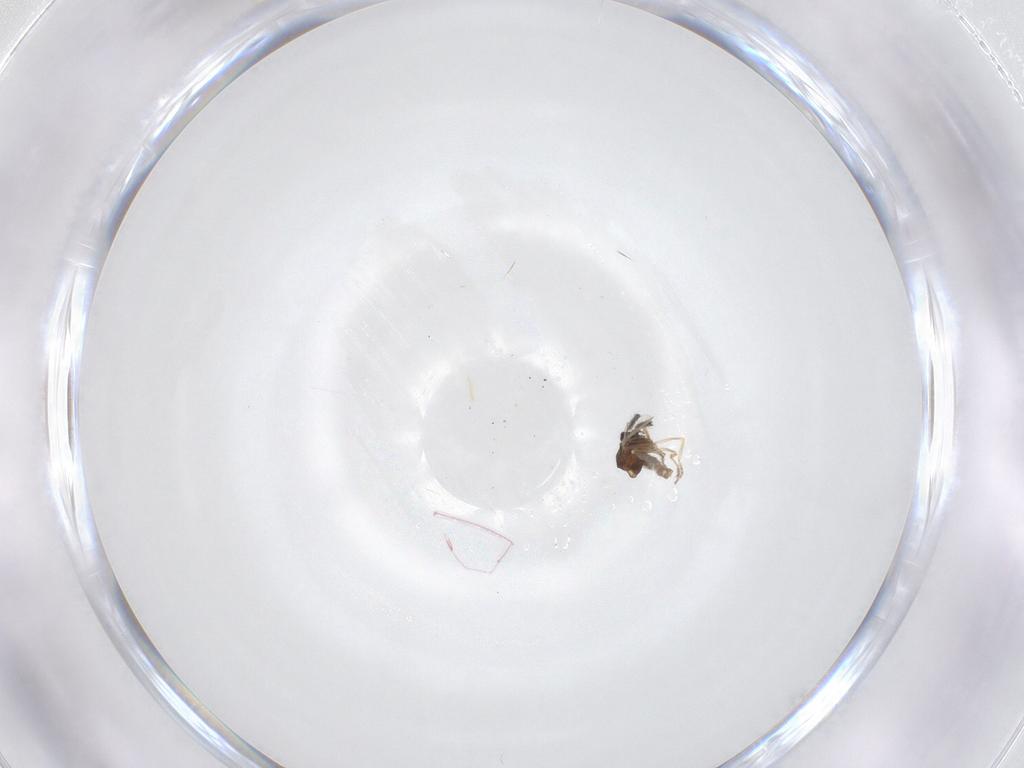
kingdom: Animalia
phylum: Arthropoda
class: Insecta
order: Diptera
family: Ceratopogonidae
